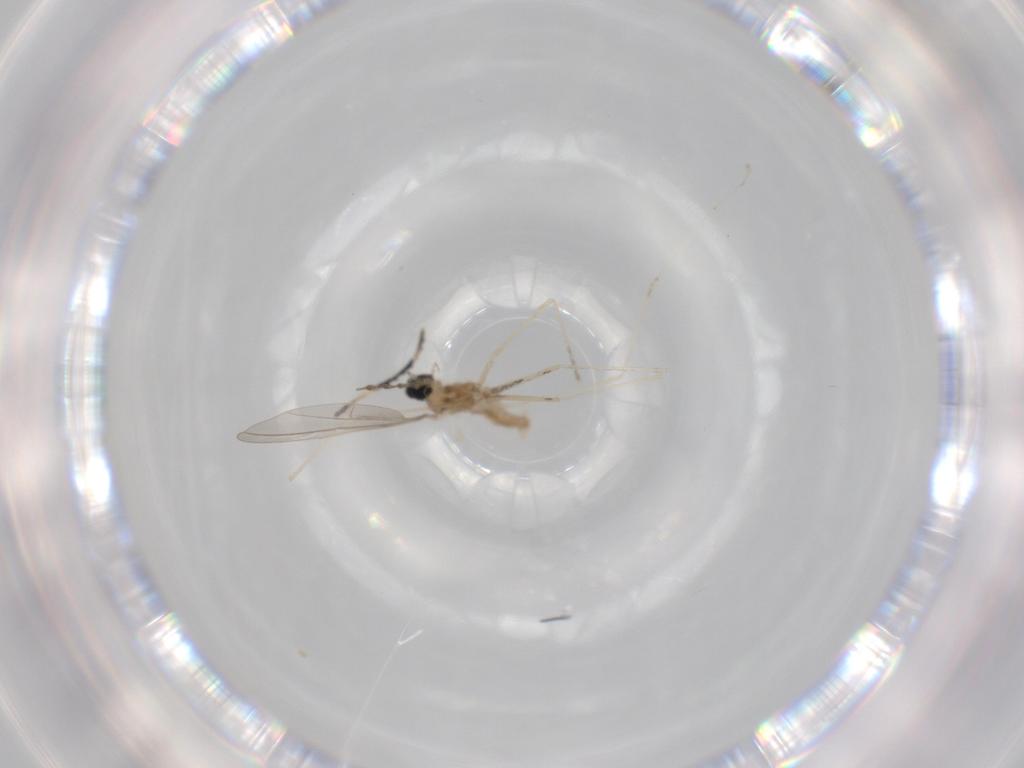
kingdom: Animalia
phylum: Arthropoda
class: Insecta
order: Diptera
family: Cecidomyiidae
